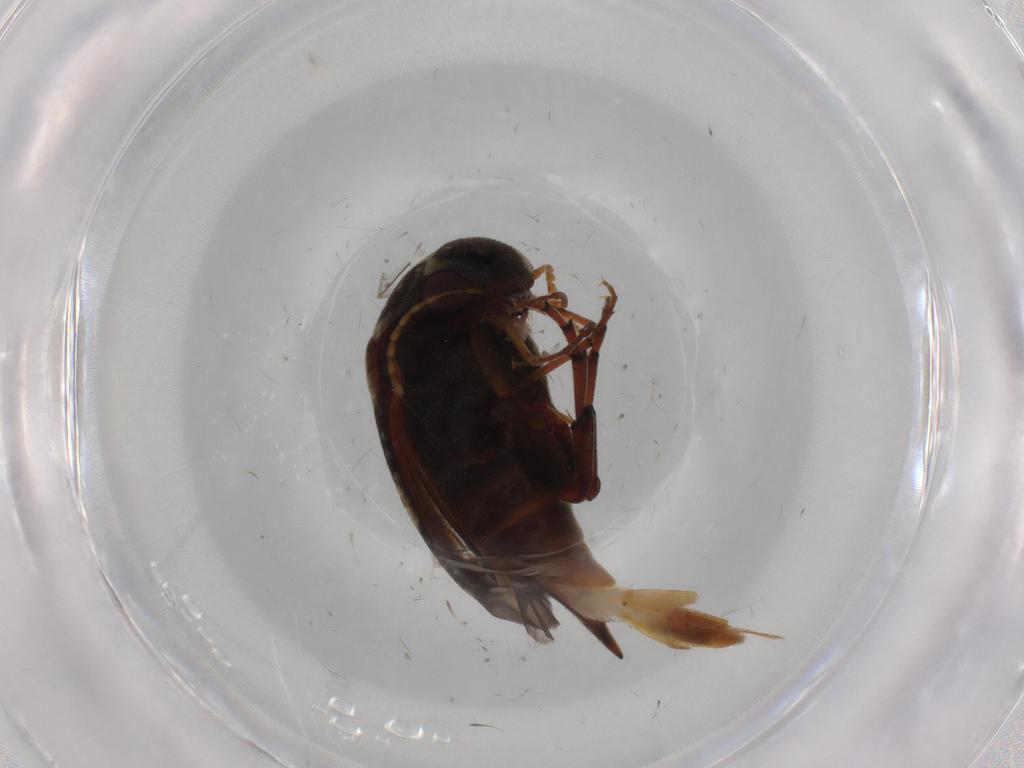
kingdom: Animalia
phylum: Arthropoda
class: Insecta
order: Coleoptera
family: Mordellidae
